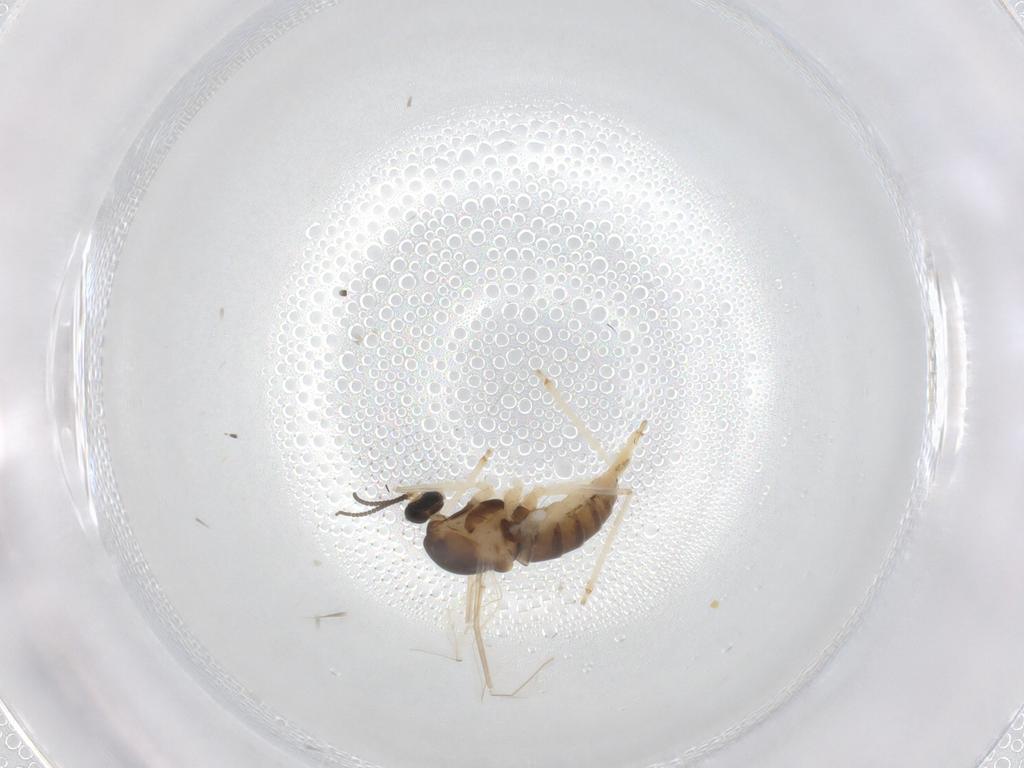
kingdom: Animalia
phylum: Arthropoda
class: Insecta
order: Diptera
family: Cecidomyiidae
